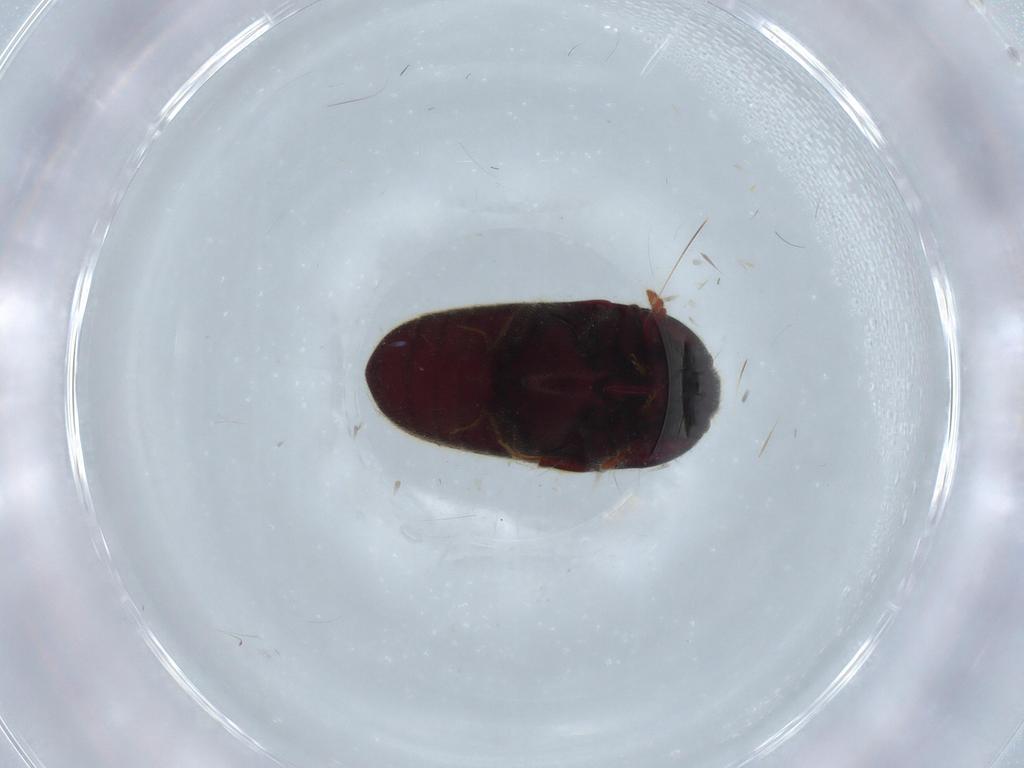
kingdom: Animalia
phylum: Arthropoda
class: Insecta
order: Coleoptera
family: Throscidae
